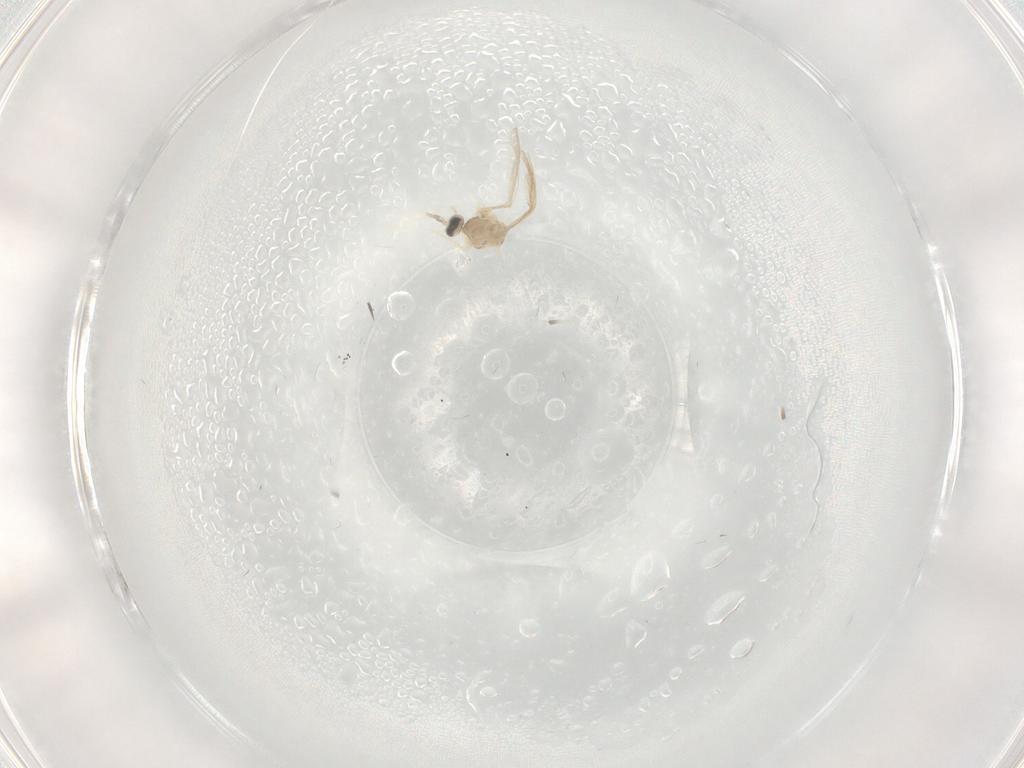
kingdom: Animalia
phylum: Arthropoda
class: Insecta
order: Diptera
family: Cecidomyiidae
